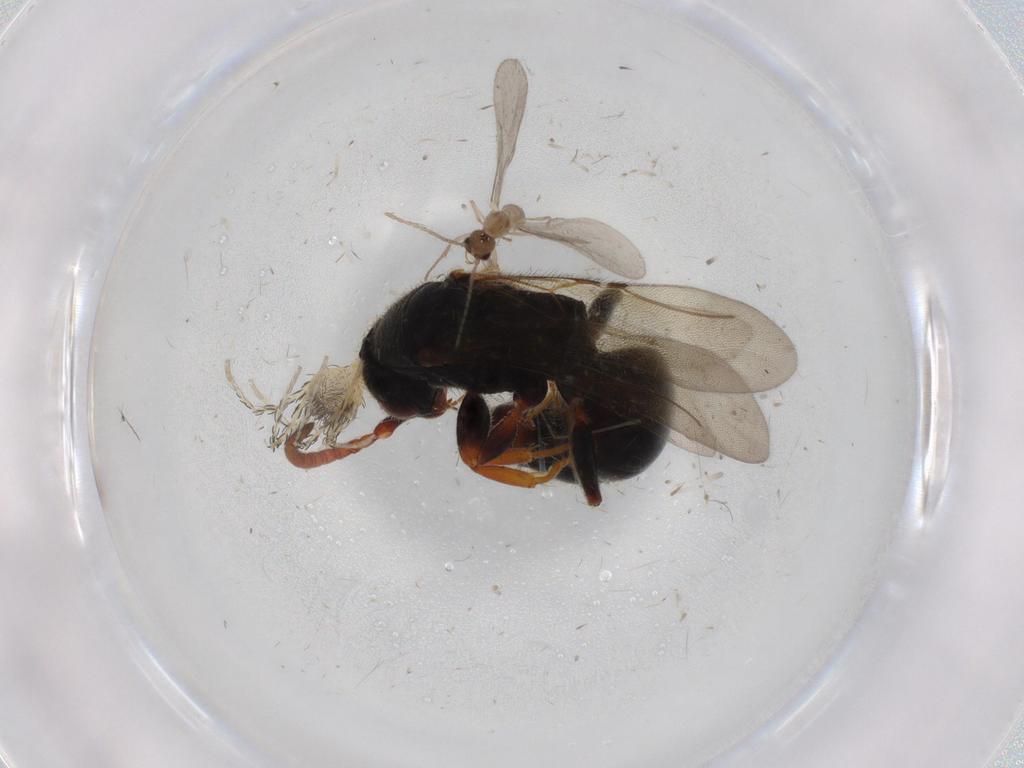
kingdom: Animalia
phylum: Arthropoda
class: Insecta
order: Hymenoptera
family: Formicidae
